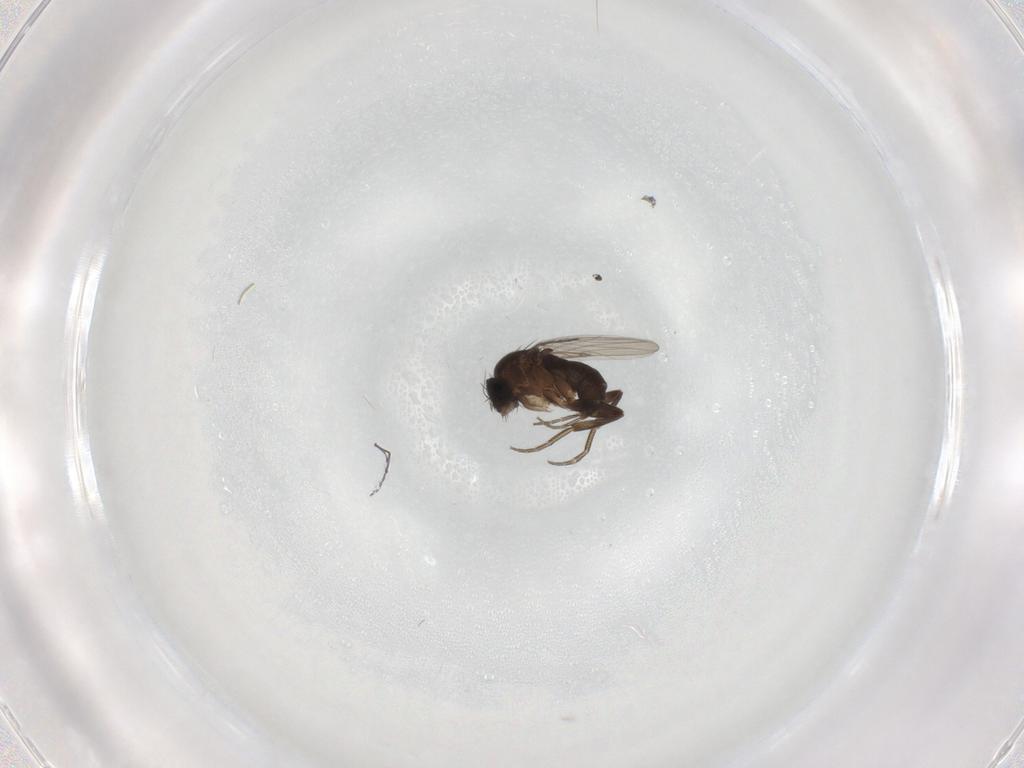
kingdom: Animalia
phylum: Arthropoda
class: Insecta
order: Diptera
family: Phoridae
